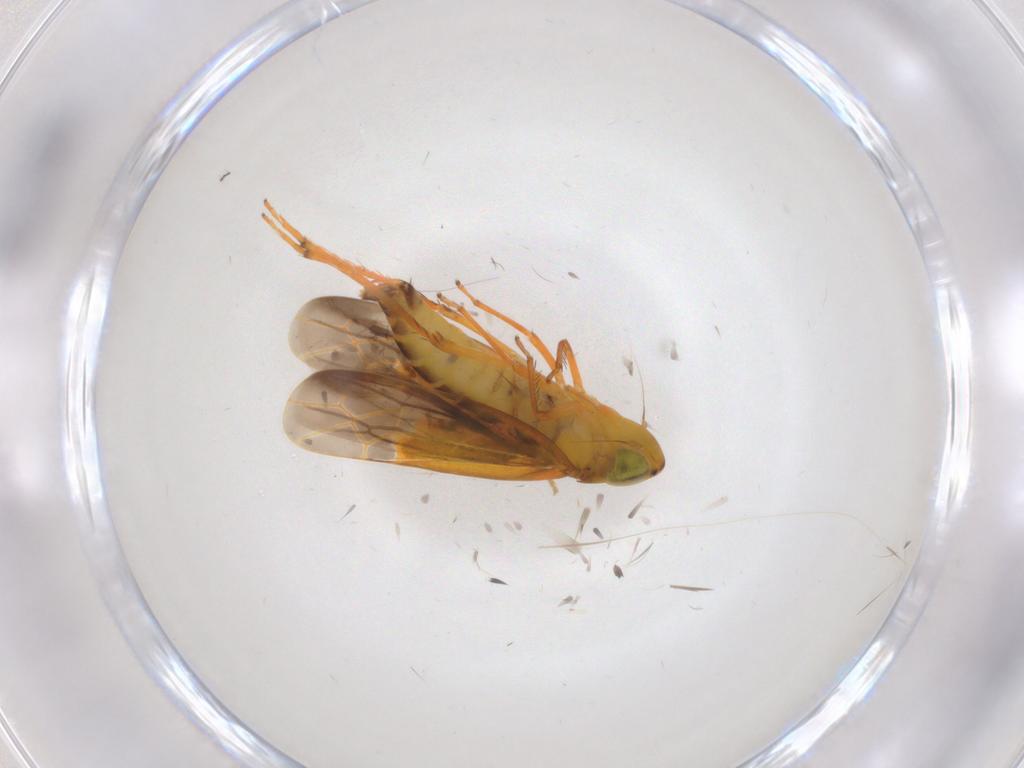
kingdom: Animalia
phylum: Arthropoda
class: Insecta
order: Hemiptera
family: Cicadellidae
